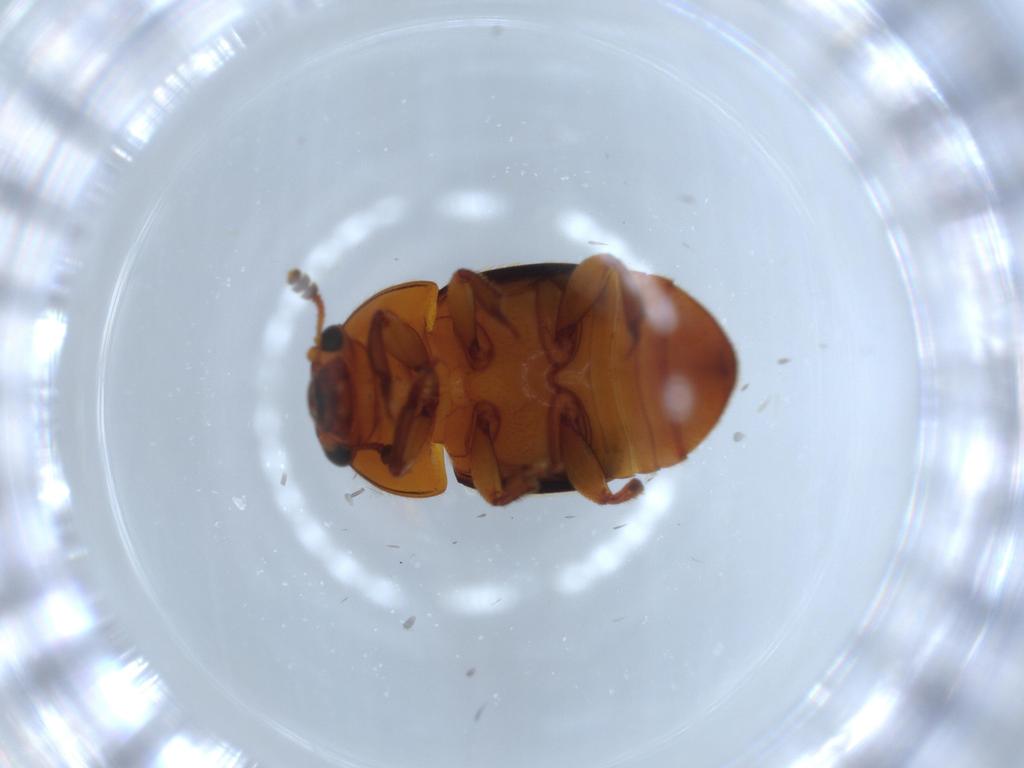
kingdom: Animalia
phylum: Arthropoda
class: Insecta
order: Coleoptera
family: Nitidulidae
